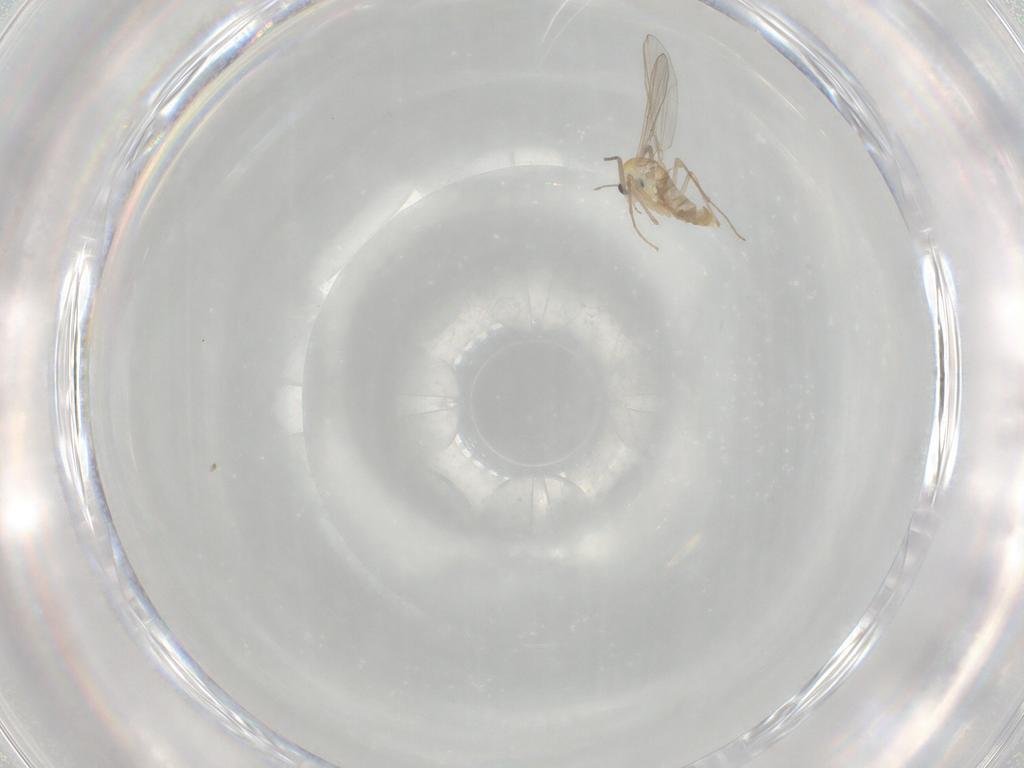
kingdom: Animalia
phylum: Arthropoda
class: Insecta
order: Diptera
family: Chironomidae
